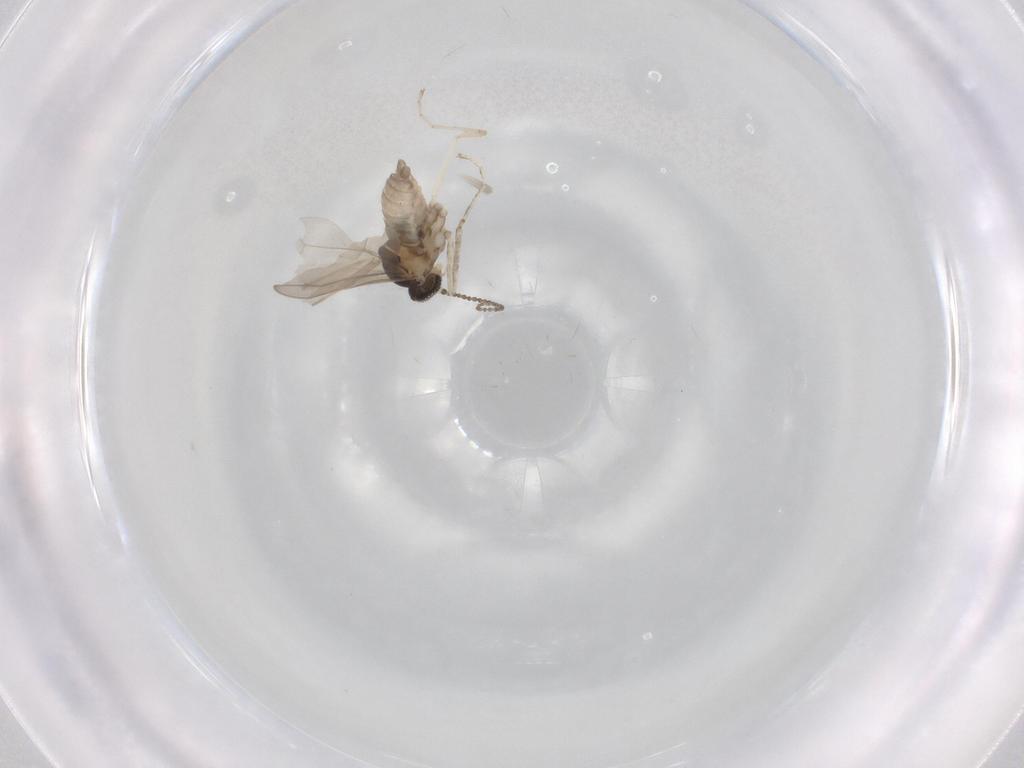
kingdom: Animalia
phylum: Arthropoda
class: Insecta
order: Diptera
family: Cecidomyiidae
